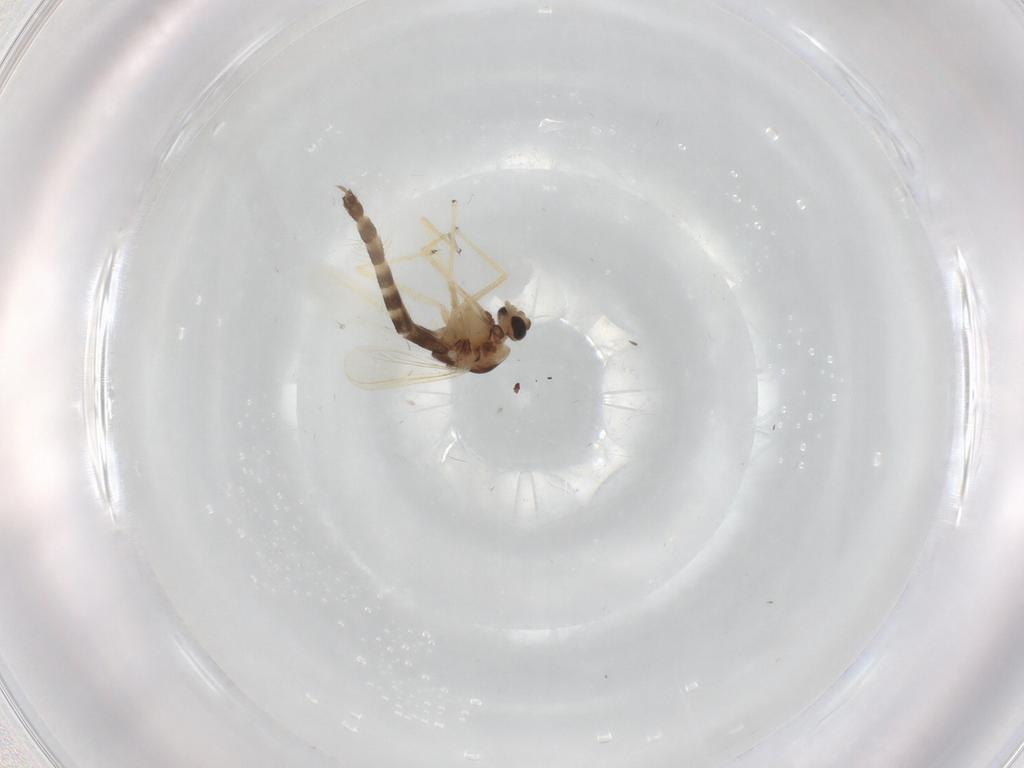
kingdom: Animalia
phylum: Arthropoda
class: Insecta
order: Diptera
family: Chironomidae
